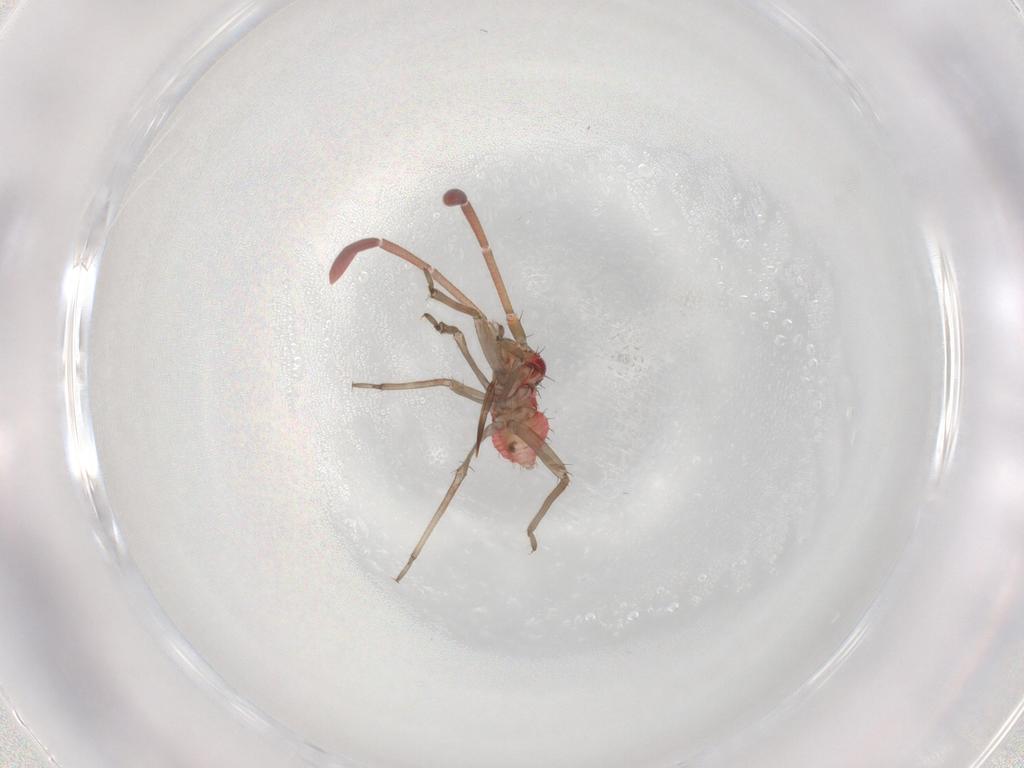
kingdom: Animalia
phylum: Arthropoda
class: Insecta
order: Hemiptera
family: Miridae
